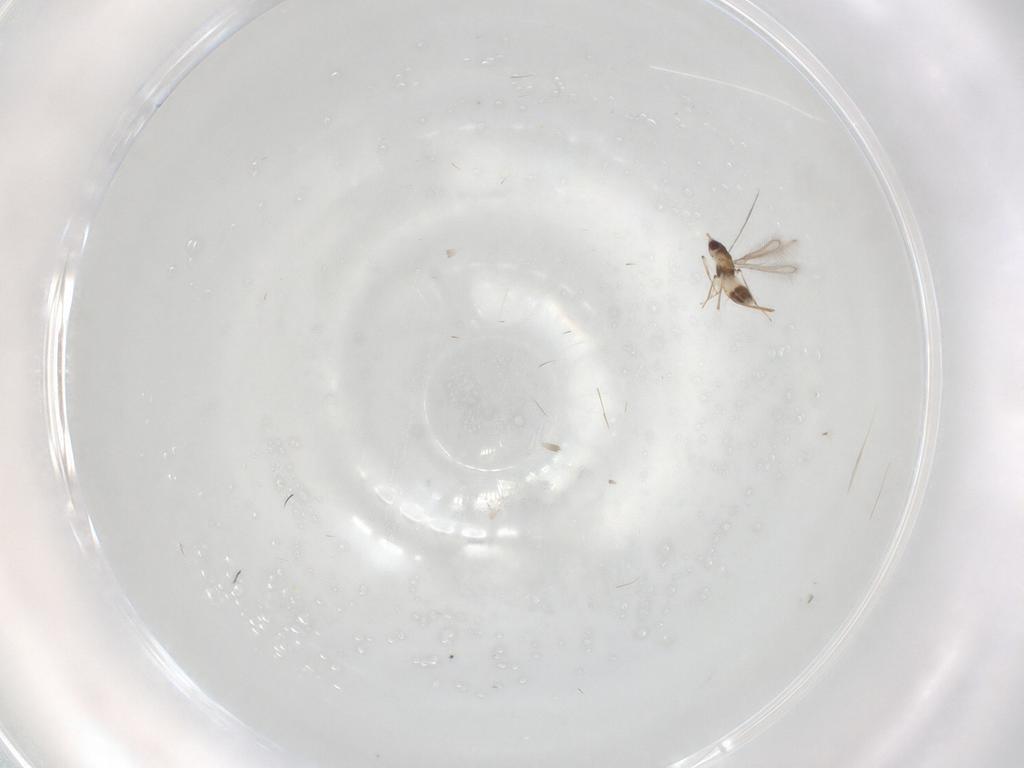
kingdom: Animalia
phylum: Arthropoda
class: Insecta
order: Hymenoptera
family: Mymaridae
